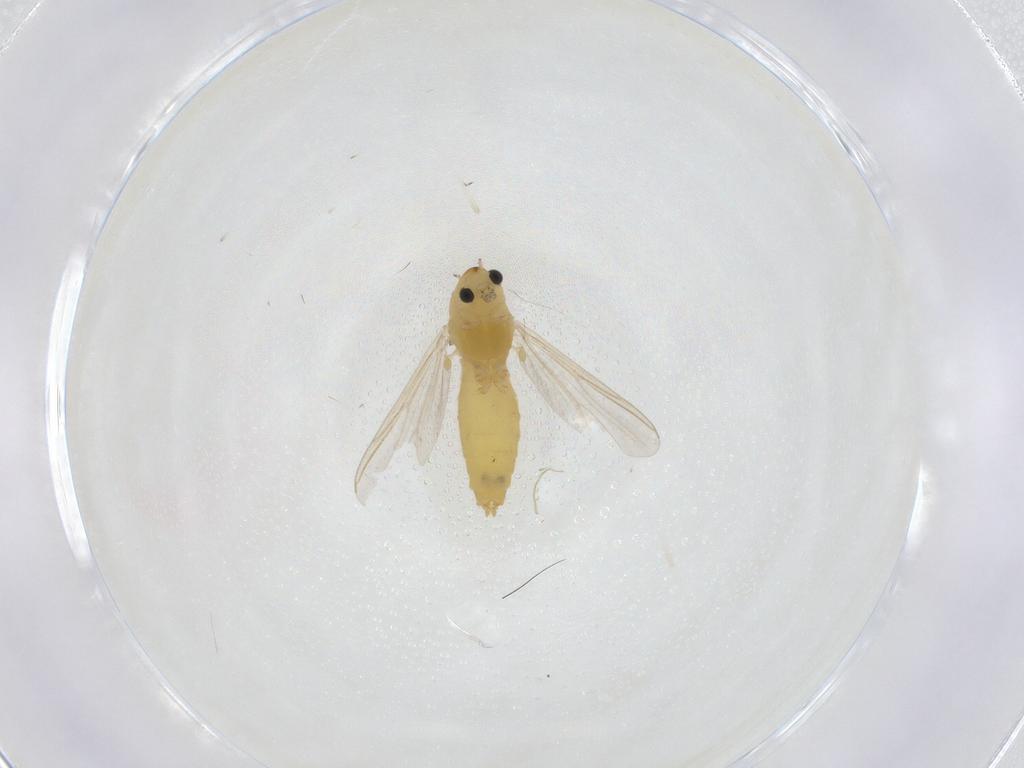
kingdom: Animalia
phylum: Arthropoda
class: Insecta
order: Diptera
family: Chironomidae
